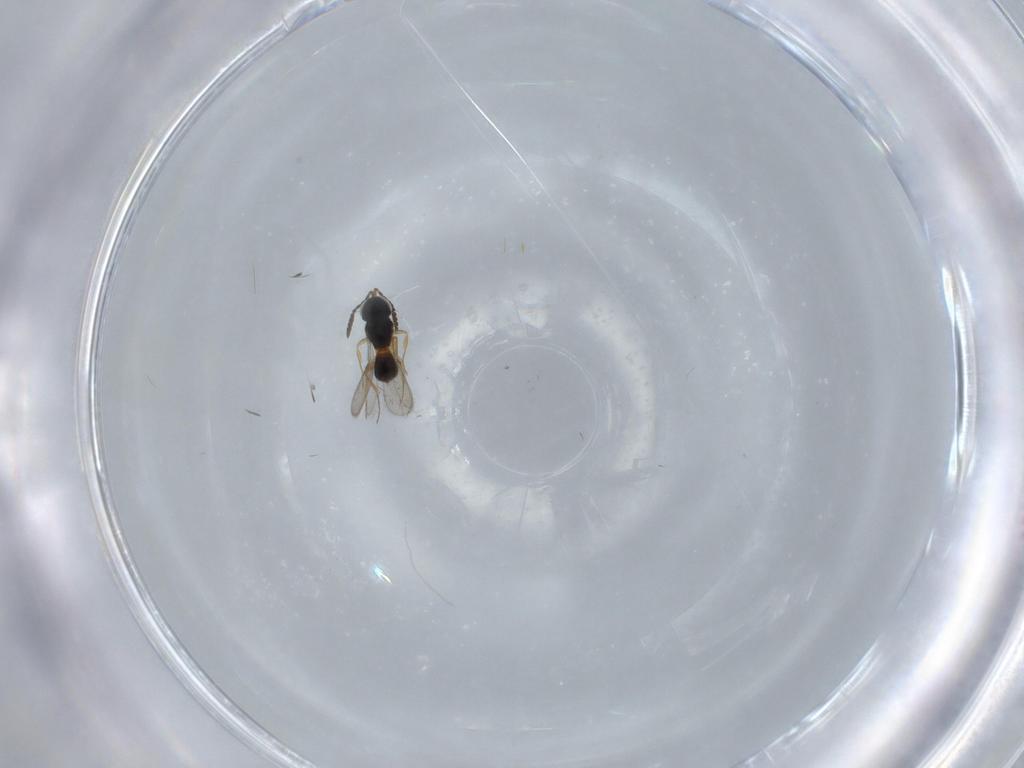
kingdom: Animalia
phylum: Arthropoda
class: Insecta
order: Hymenoptera
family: Scelionidae
